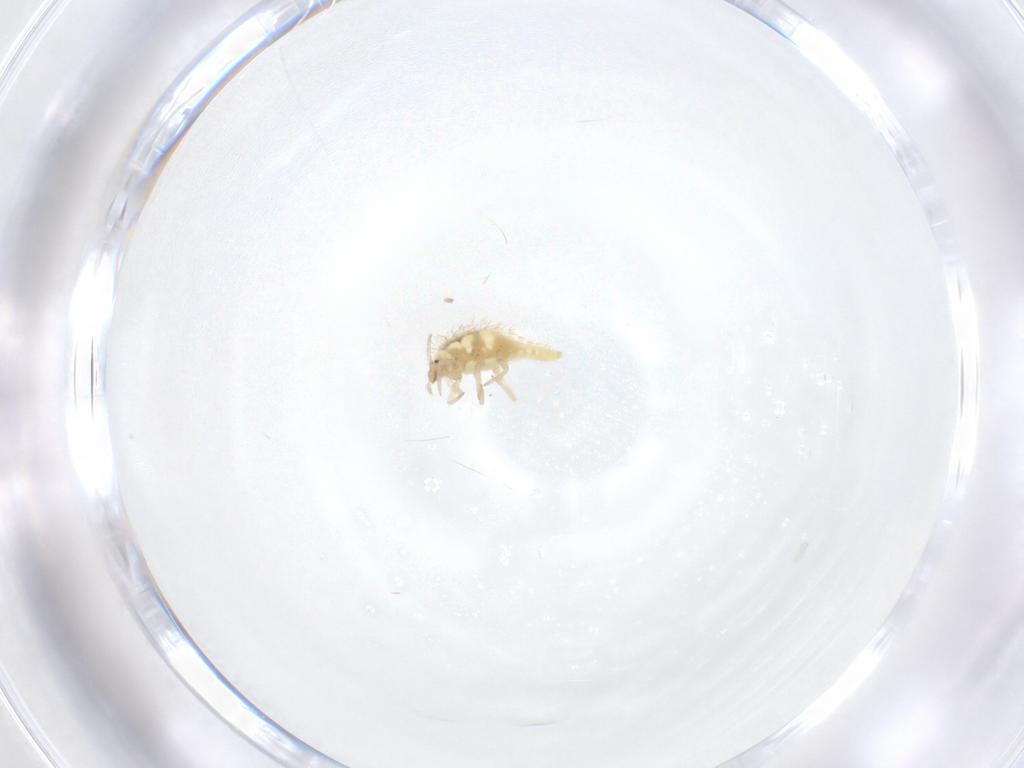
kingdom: Animalia
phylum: Arthropoda
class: Insecta
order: Neuroptera
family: Coniopterygidae
